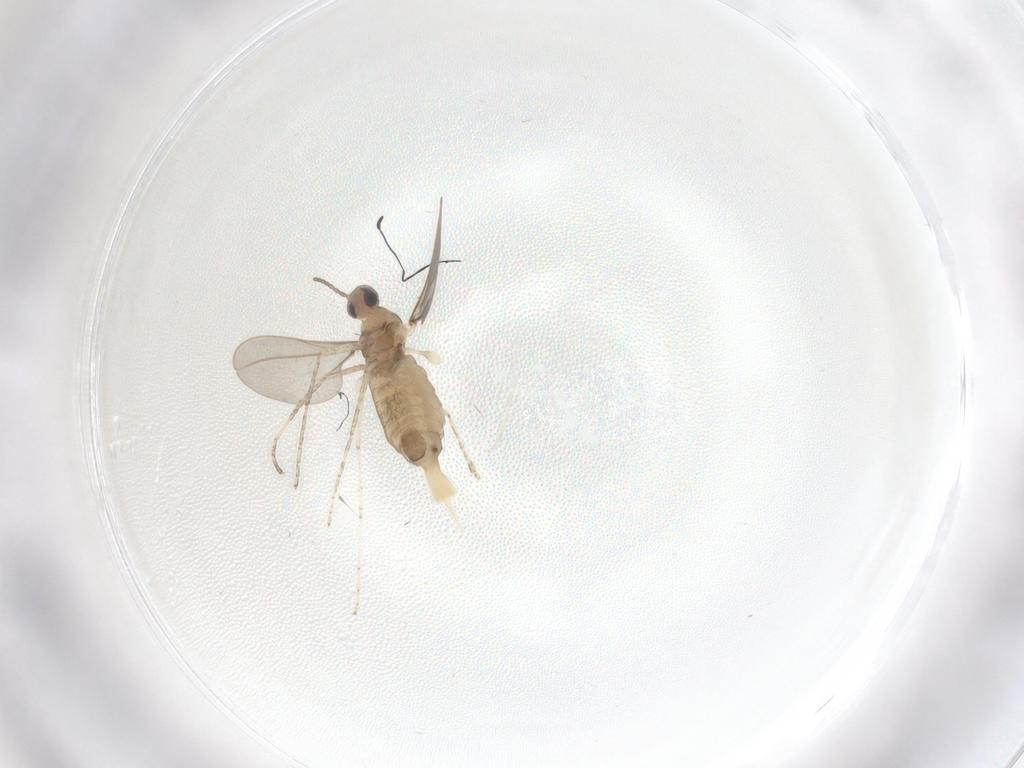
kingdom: Animalia
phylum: Arthropoda
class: Insecta
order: Diptera
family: Cecidomyiidae
